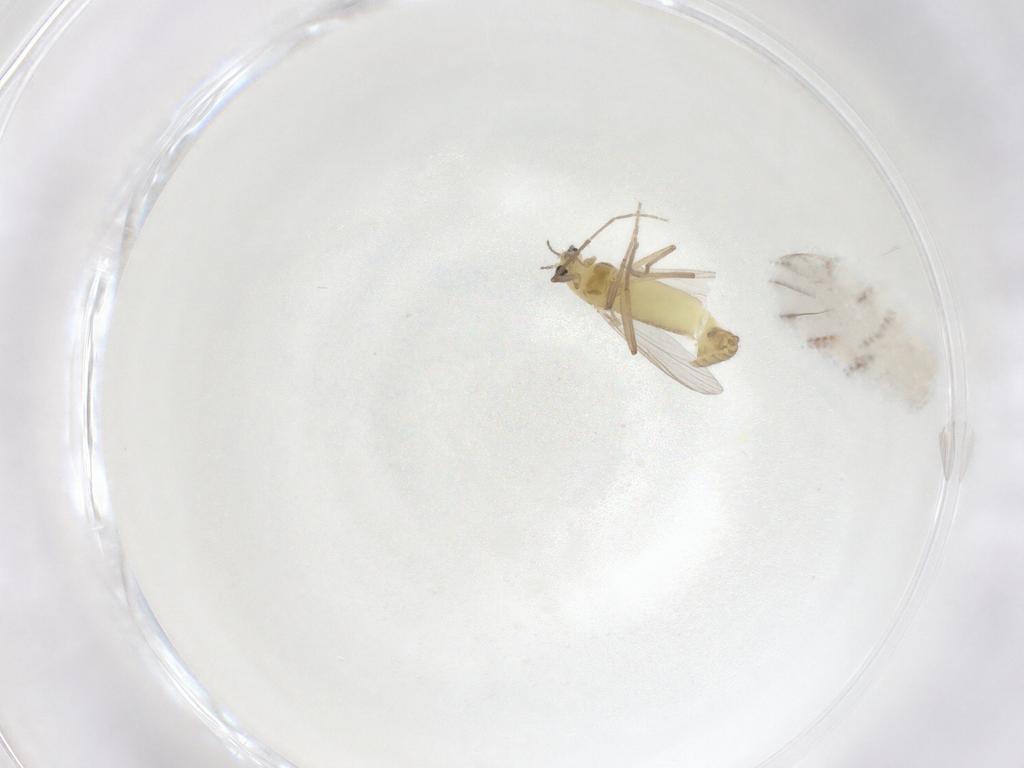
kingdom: Animalia
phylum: Arthropoda
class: Insecta
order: Diptera
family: Chironomidae
